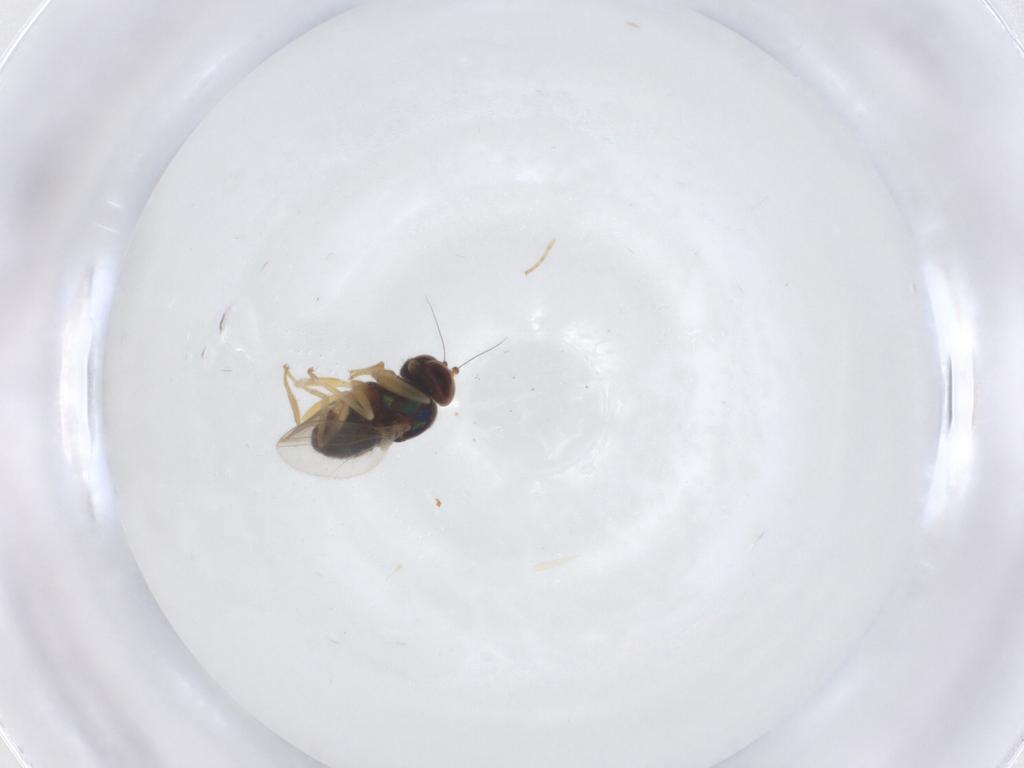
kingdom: Animalia
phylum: Arthropoda
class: Insecta
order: Diptera
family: Dolichopodidae
